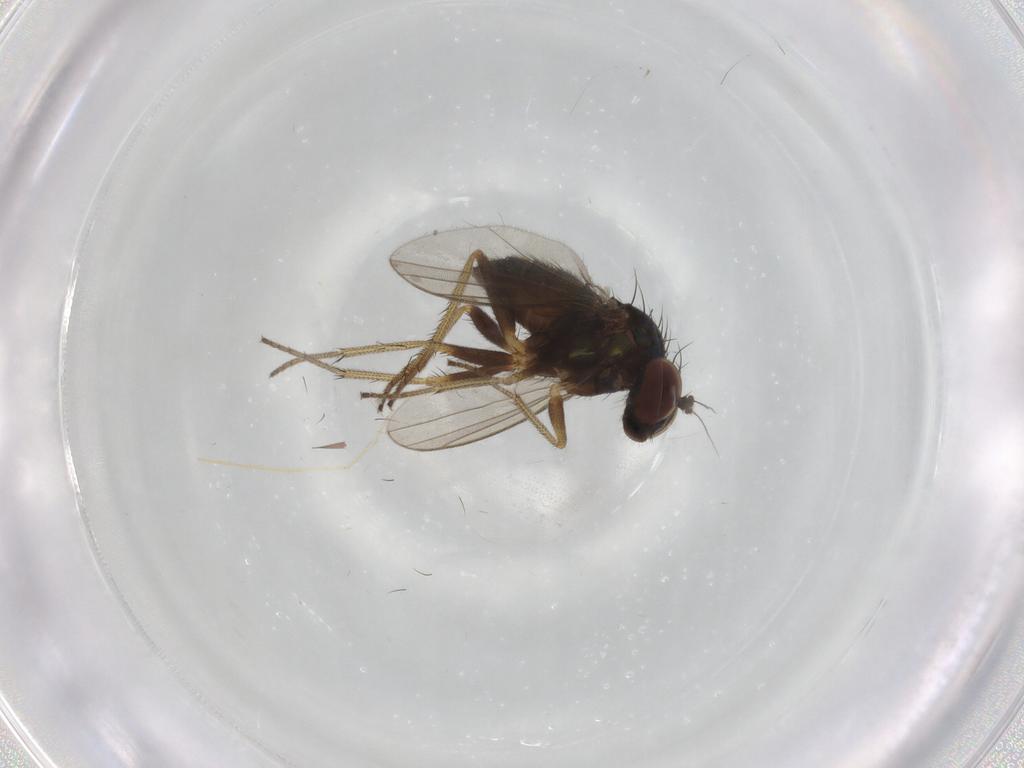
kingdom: Animalia
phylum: Arthropoda
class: Insecta
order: Diptera
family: Dolichopodidae
